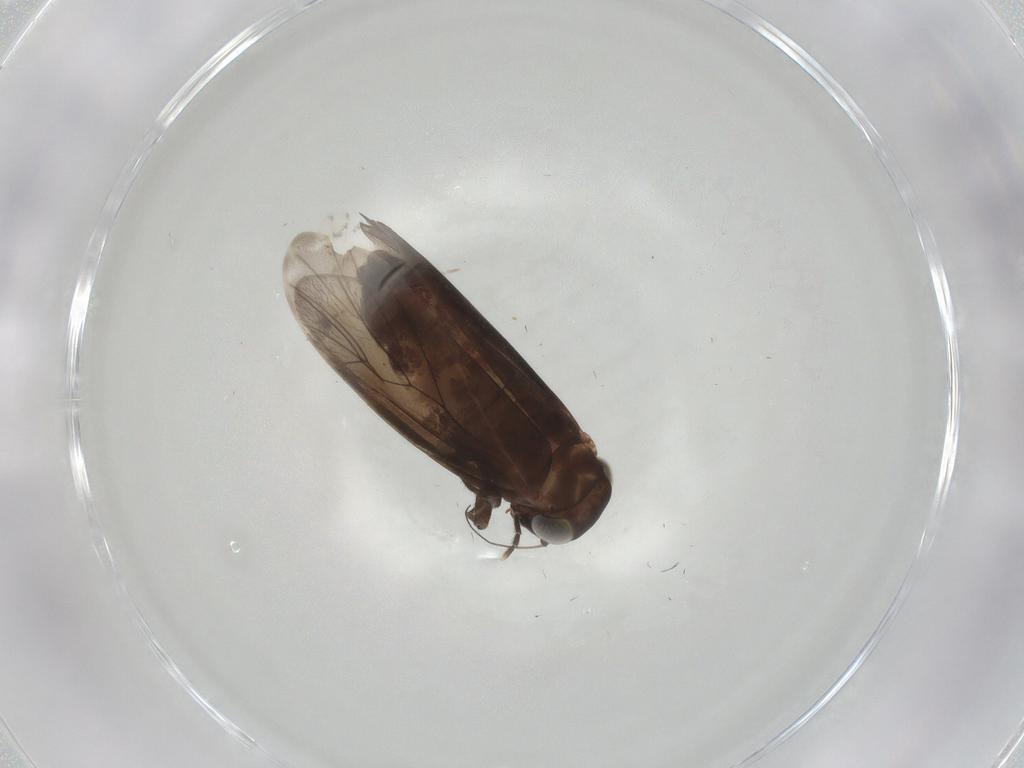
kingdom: Animalia
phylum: Arthropoda
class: Insecta
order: Psocodea
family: Amphientomidae
